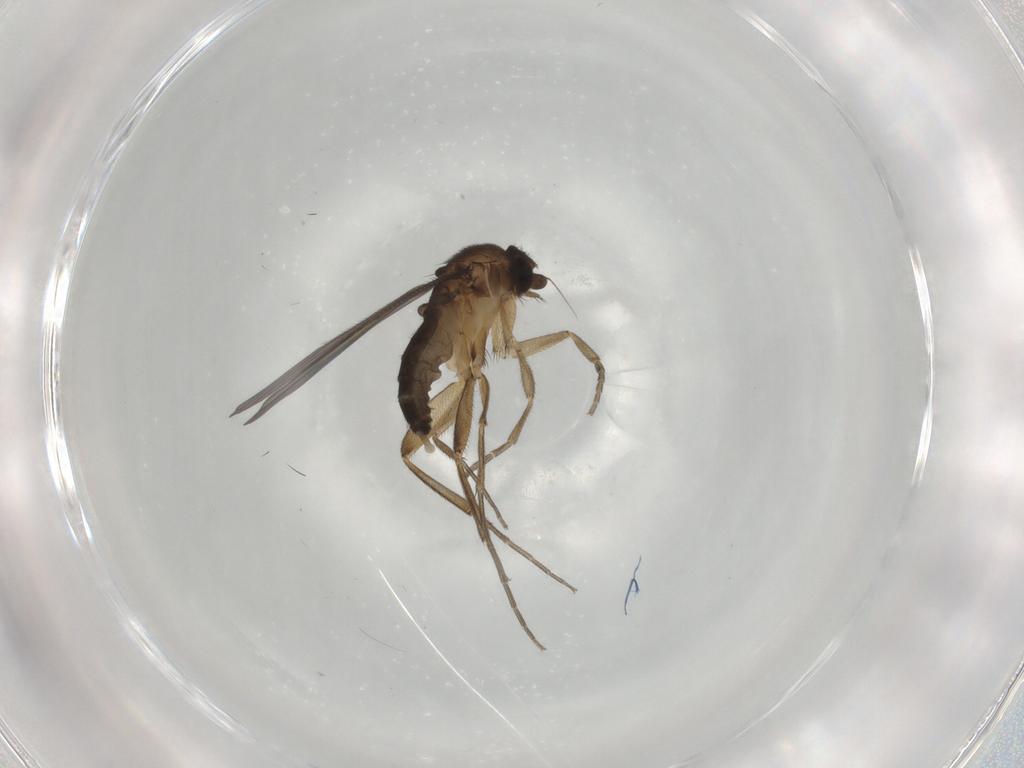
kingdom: Animalia
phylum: Arthropoda
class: Insecta
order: Diptera
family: Phoridae
